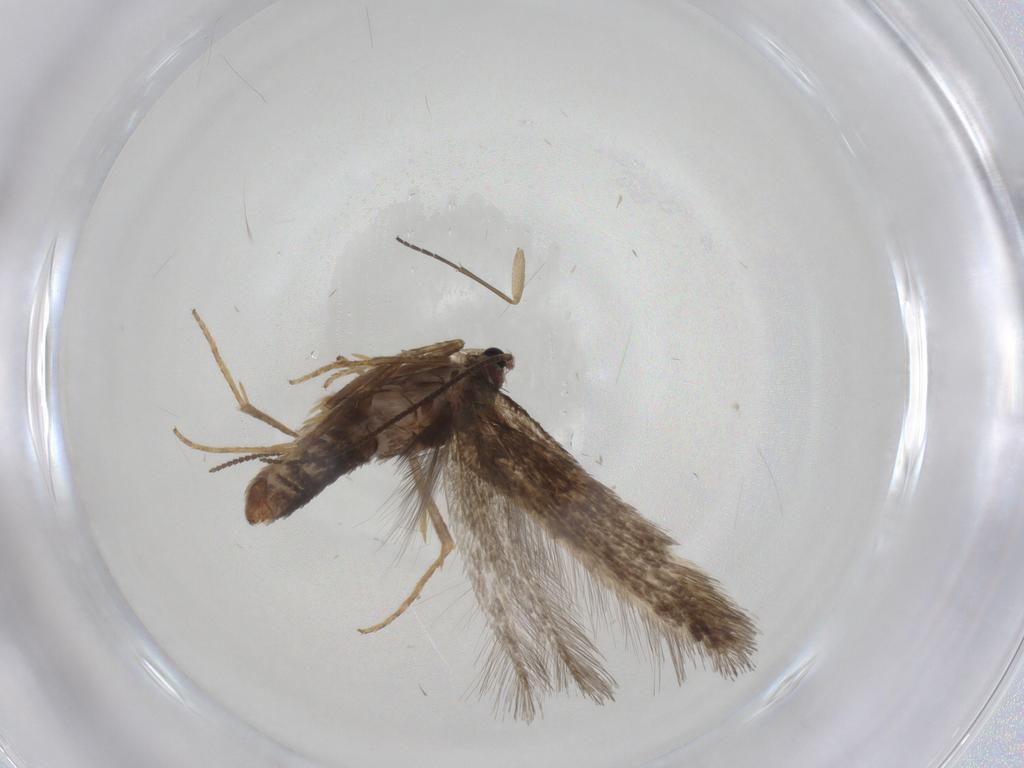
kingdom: Animalia
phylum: Arthropoda
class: Insecta
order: Lepidoptera
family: Nepticulidae
